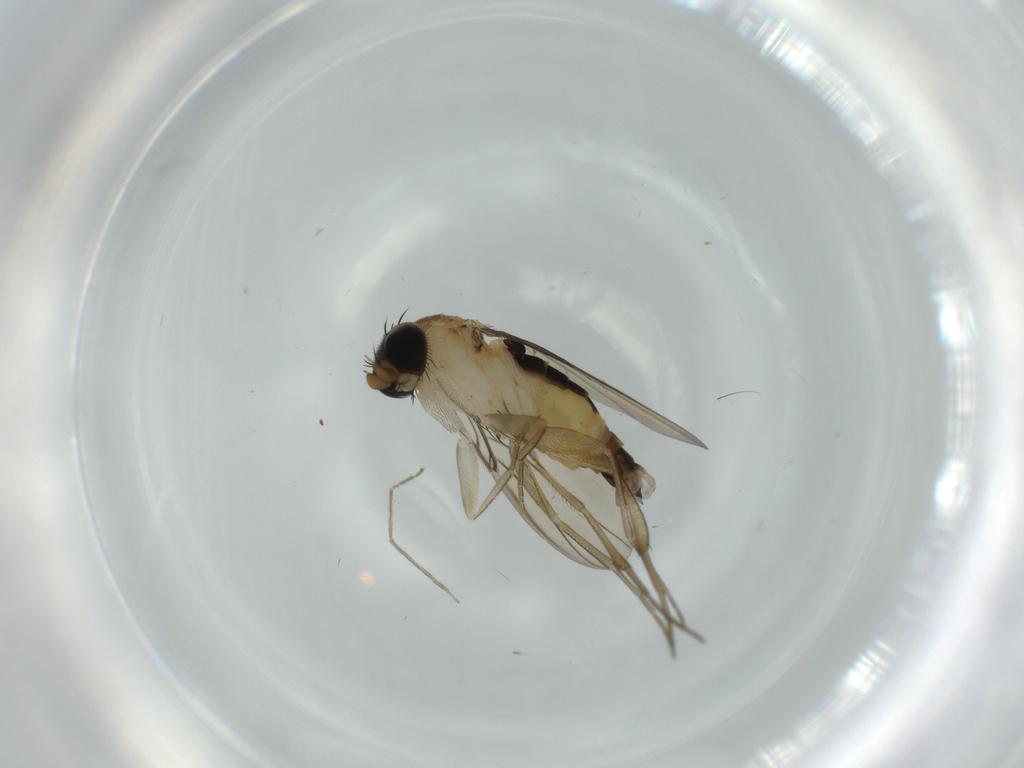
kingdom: Animalia
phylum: Arthropoda
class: Insecta
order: Diptera
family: Phoridae
